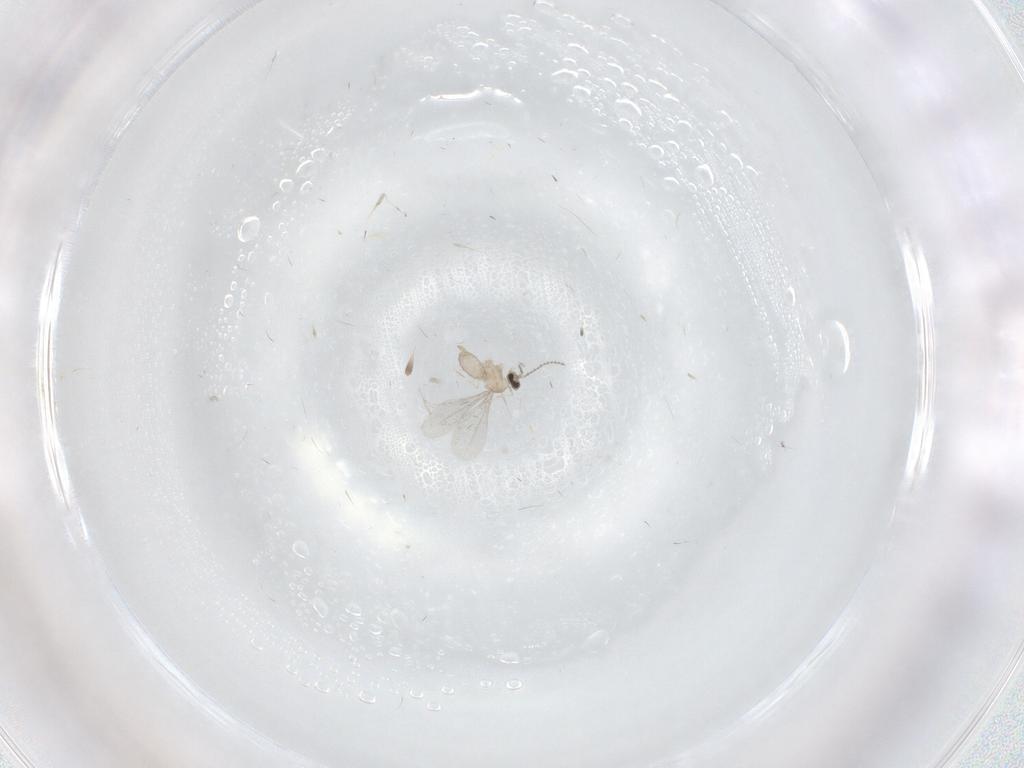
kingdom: Animalia
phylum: Arthropoda
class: Insecta
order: Diptera
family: Cecidomyiidae
